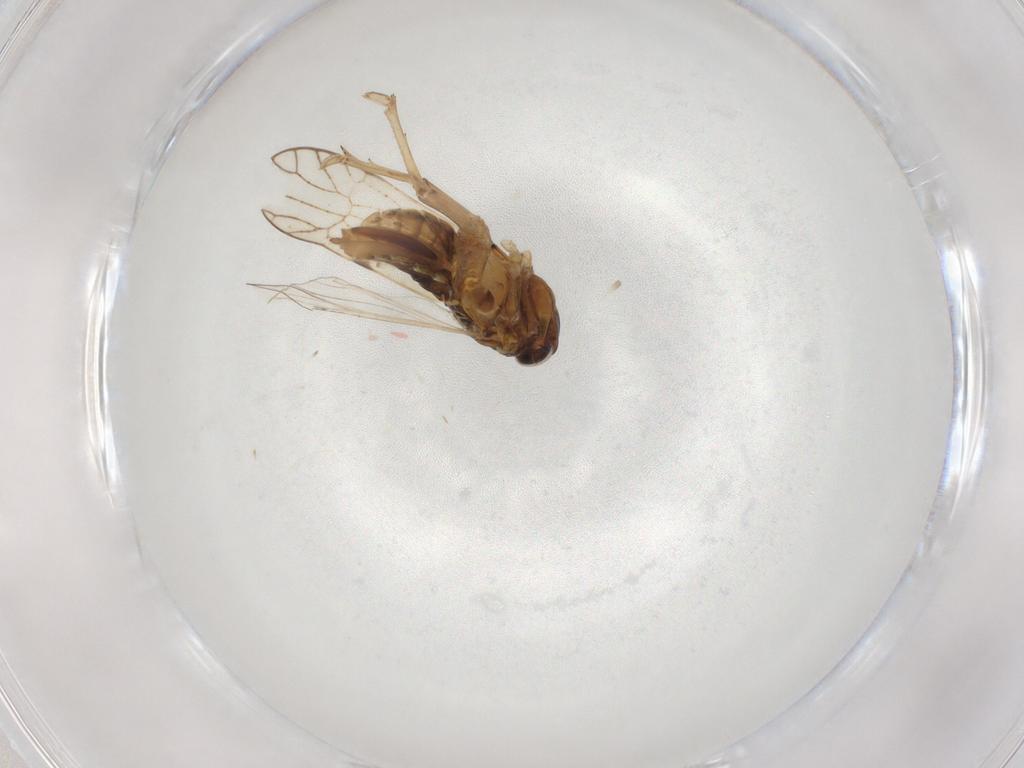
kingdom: Animalia
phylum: Arthropoda
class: Insecta
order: Hemiptera
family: Delphacidae
